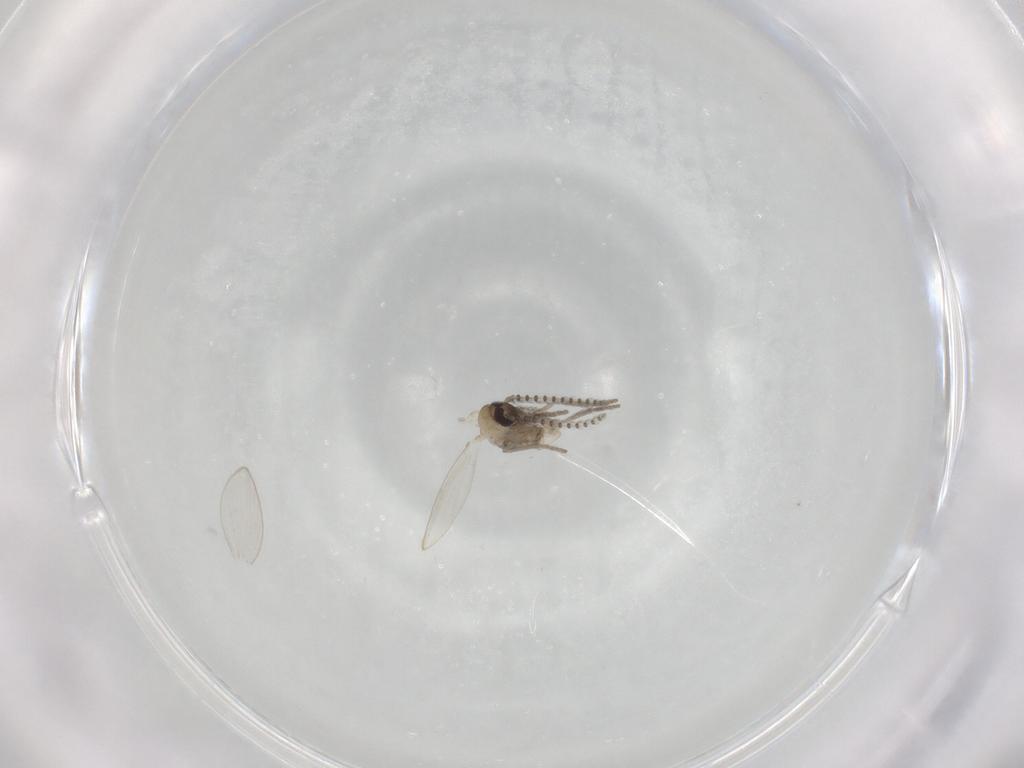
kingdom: Animalia
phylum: Arthropoda
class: Insecta
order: Diptera
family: Psychodidae
